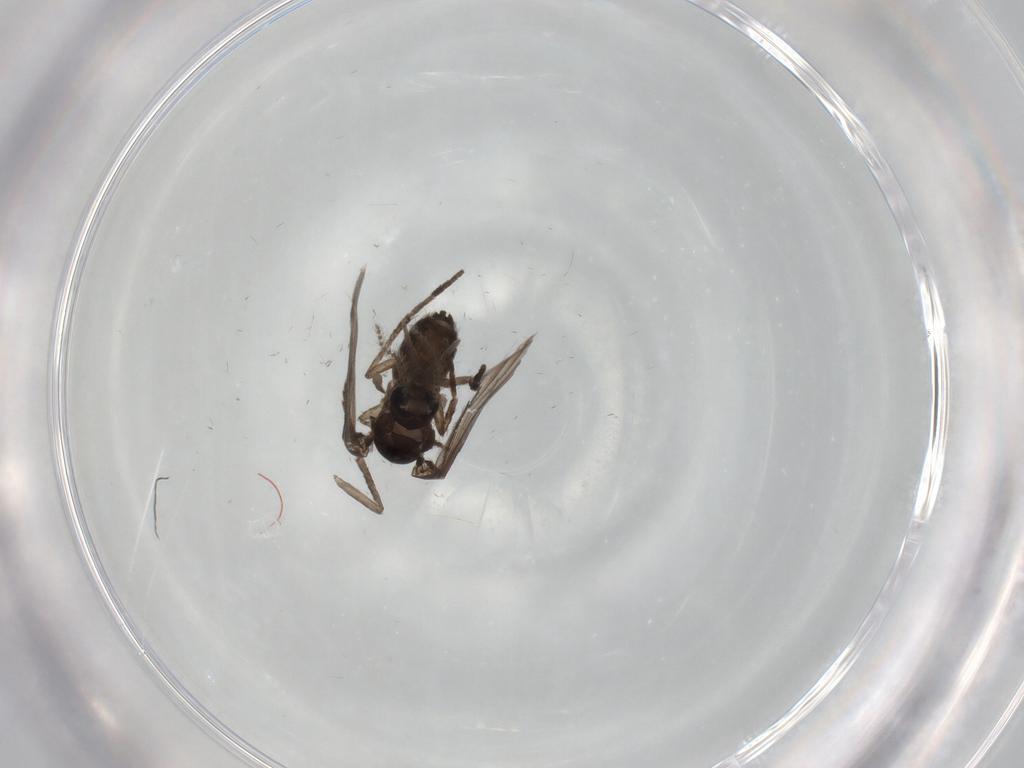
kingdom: Animalia
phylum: Arthropoda
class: Insecta
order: Diptera
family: Psychodidae
